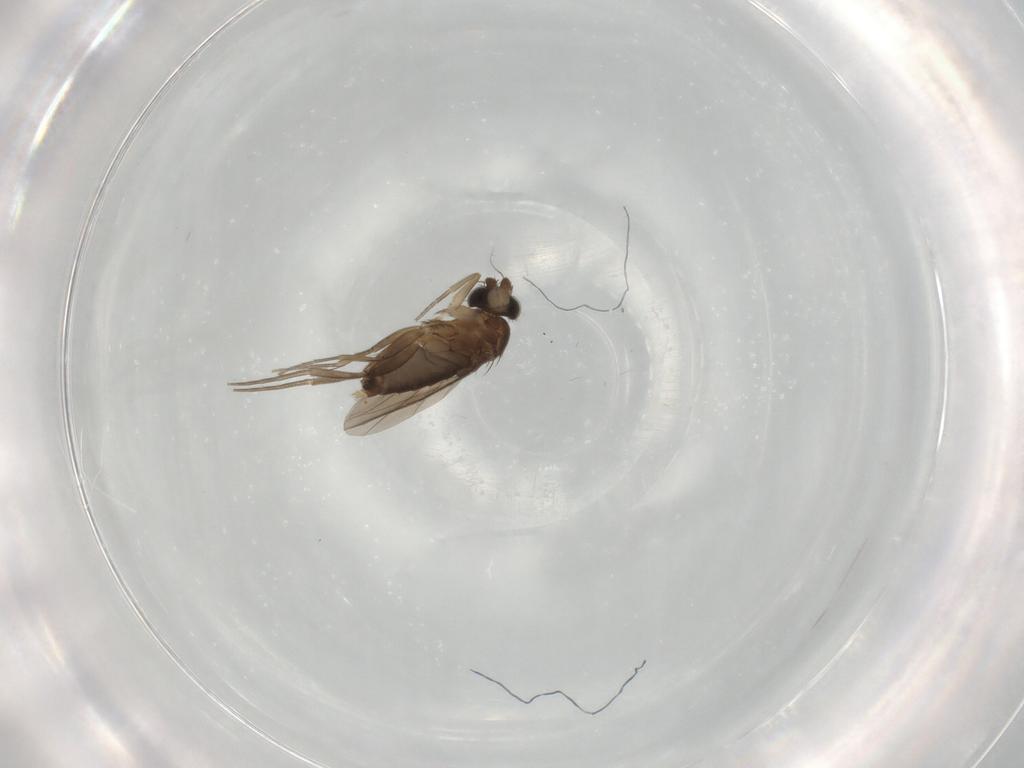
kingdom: Animalia
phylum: Arthropoda
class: Insecta
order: Diptera
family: Phoridae
